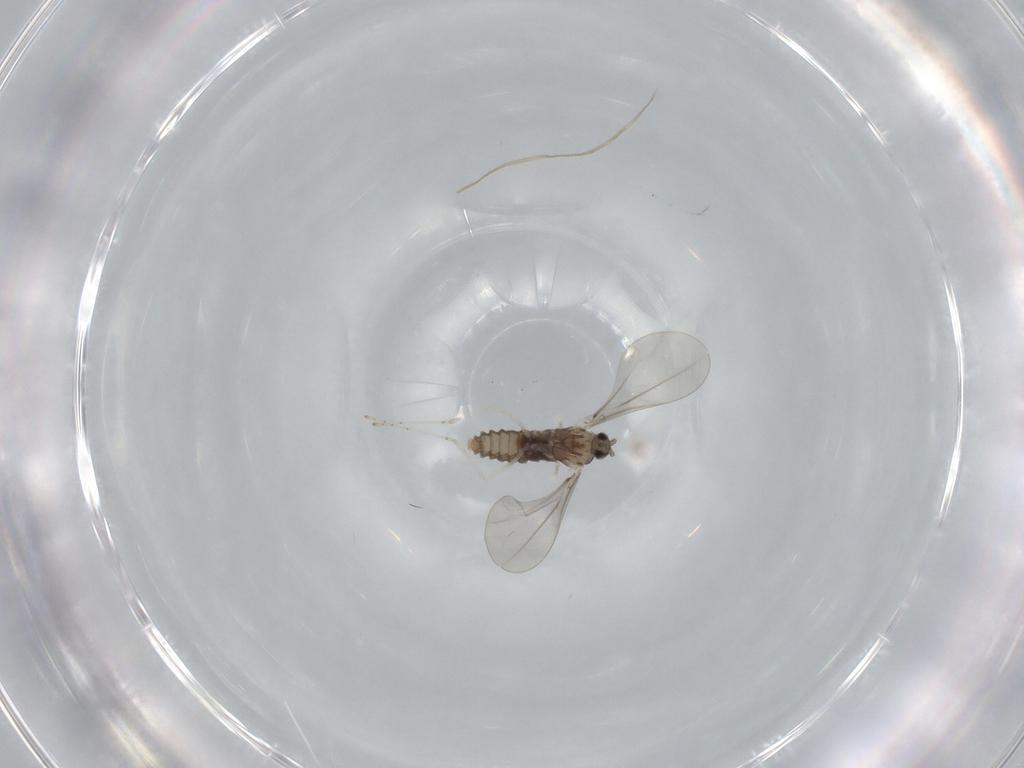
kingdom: Animalia
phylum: Arthropoda
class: Insecta
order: Diptera
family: Cecidomyiidae
